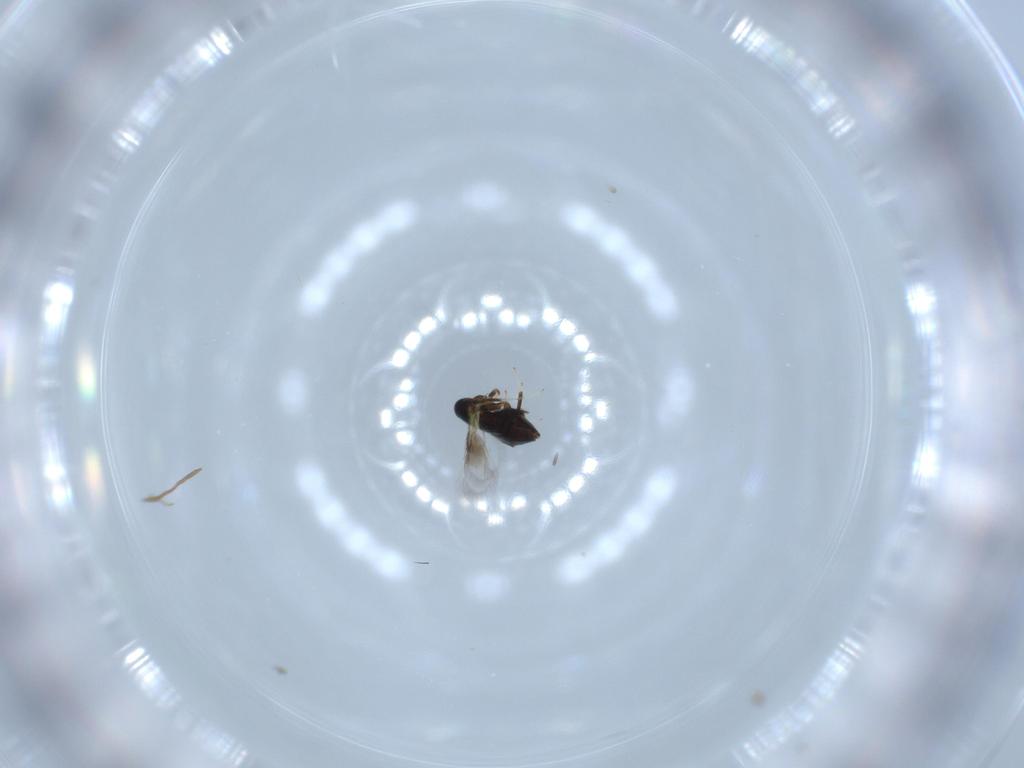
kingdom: Animalia
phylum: Arthropoda
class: Insecta
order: Hymenoptera
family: Signiphoridae
